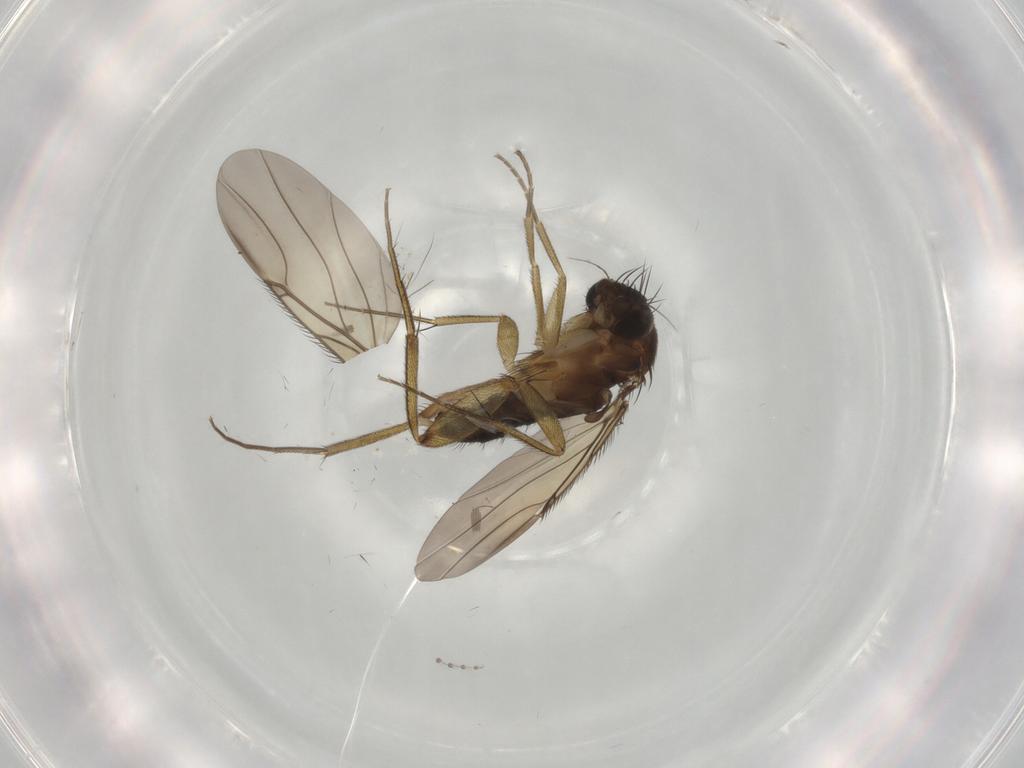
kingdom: Animalia
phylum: Arthropoda
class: Insecta
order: Diptera
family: Phoridae
